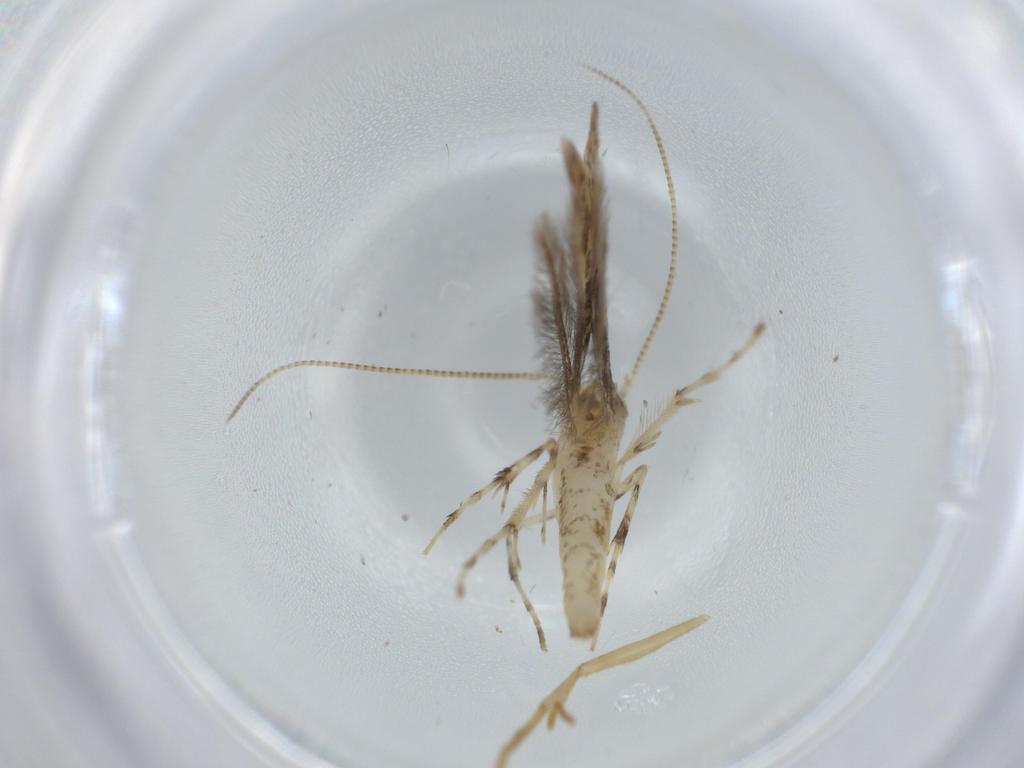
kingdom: Animalia
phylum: Arthropoda
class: Insecta
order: Lepidoptera
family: Gracillariidae
